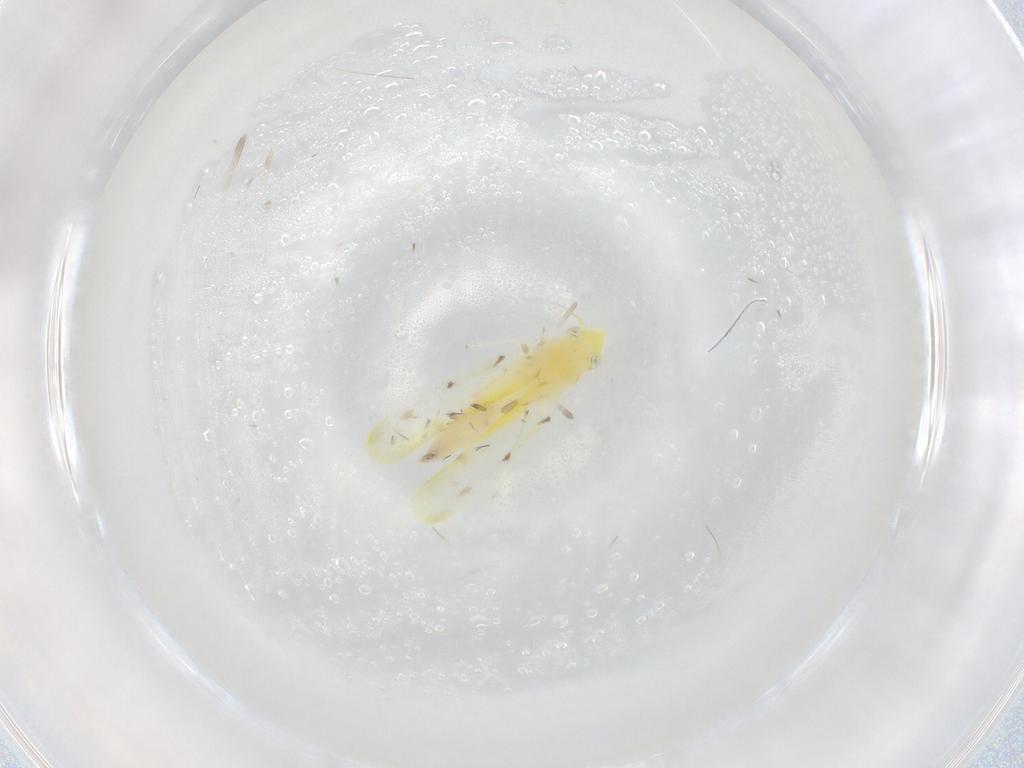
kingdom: Animalia
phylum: Arthropoda
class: Insecta
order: Hemiptera
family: Cicadellidae
